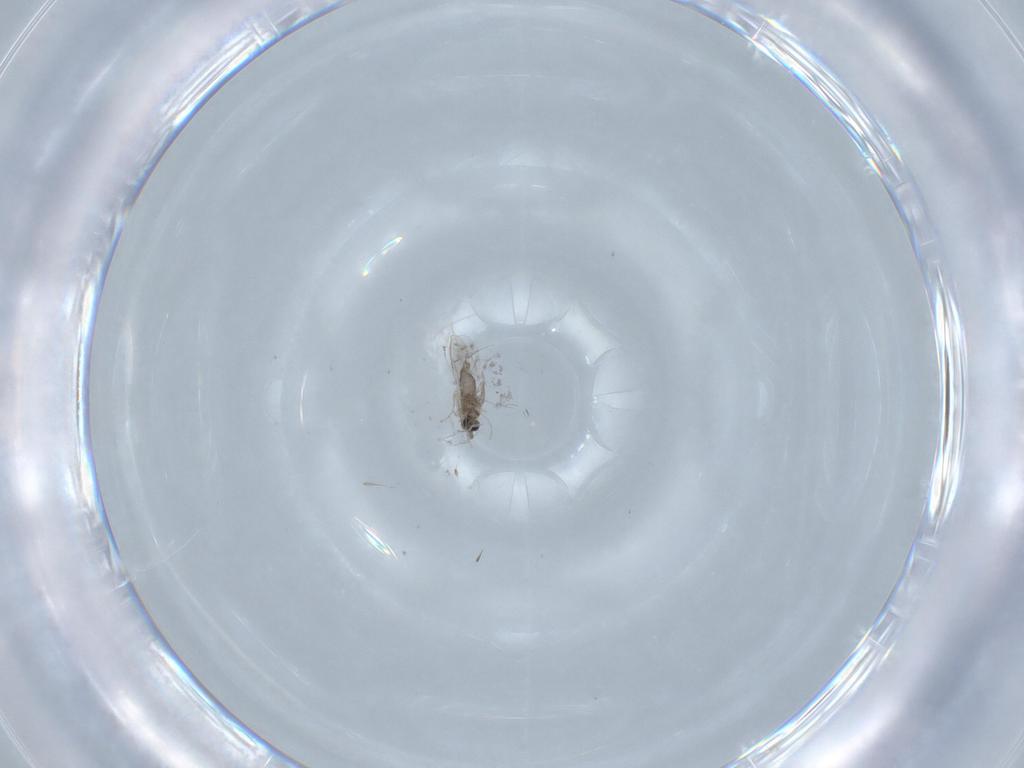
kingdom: Animalia
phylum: Arthropoda
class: Insecta
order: Diptera
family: Cecidomyiidae
